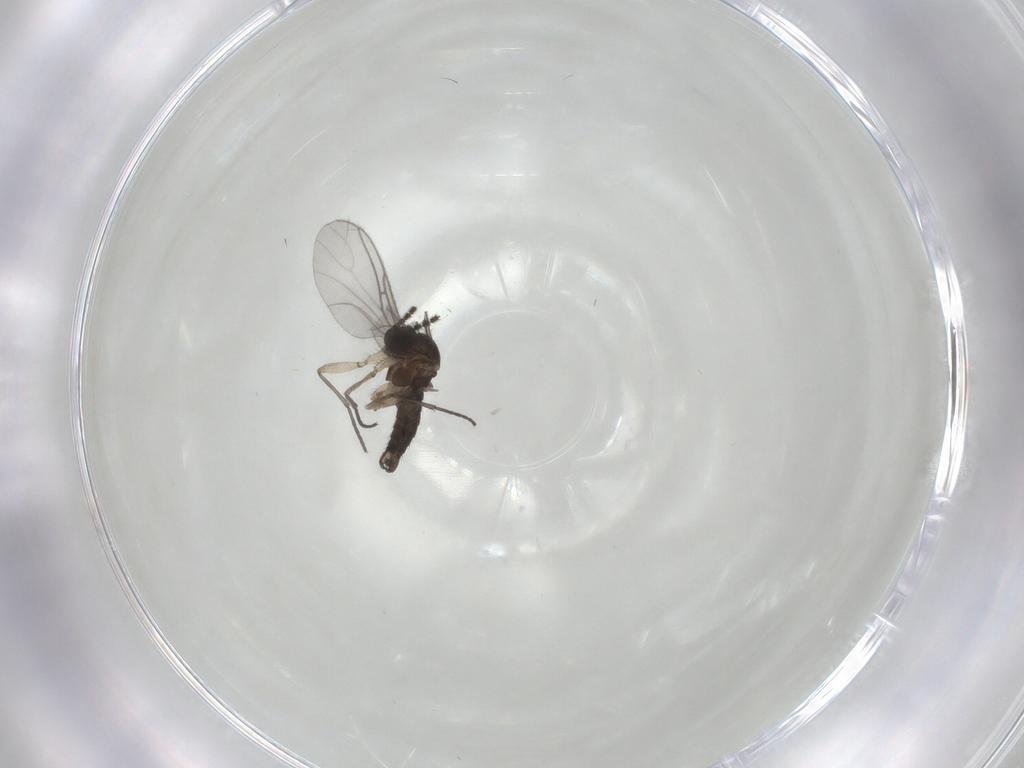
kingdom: Animalia
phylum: Arthropoda
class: Insecta
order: Diptera
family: Sciaridae
